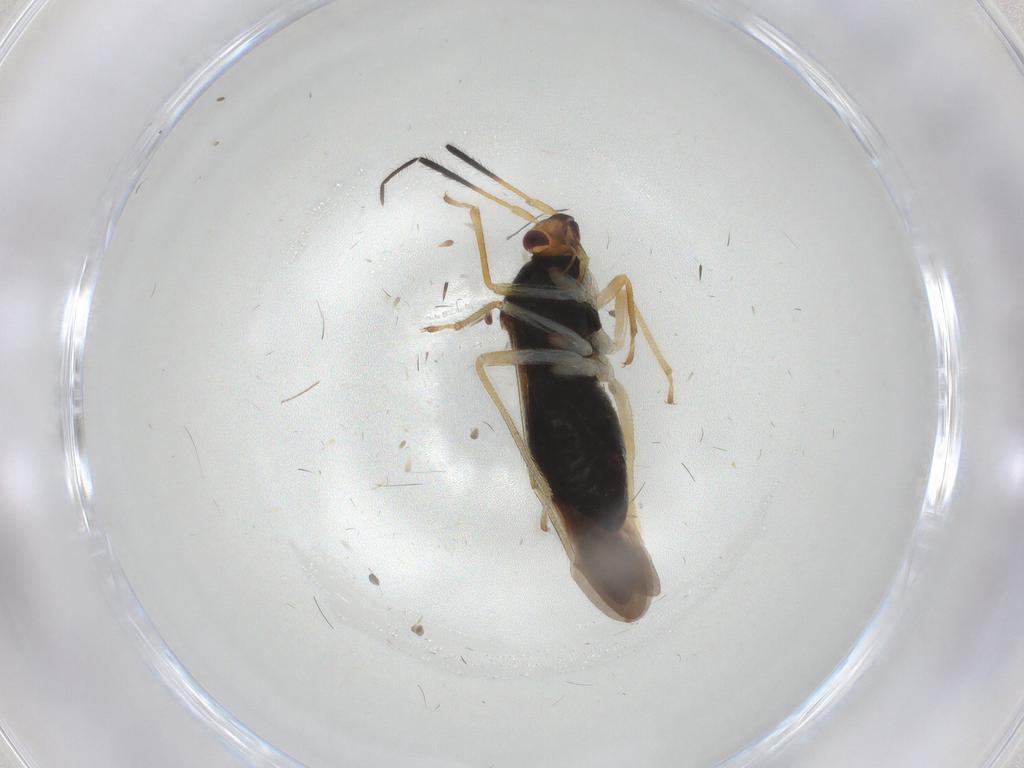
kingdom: Animalia
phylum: Arthropoda
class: Insecta
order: Hemiptera
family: Miridae
